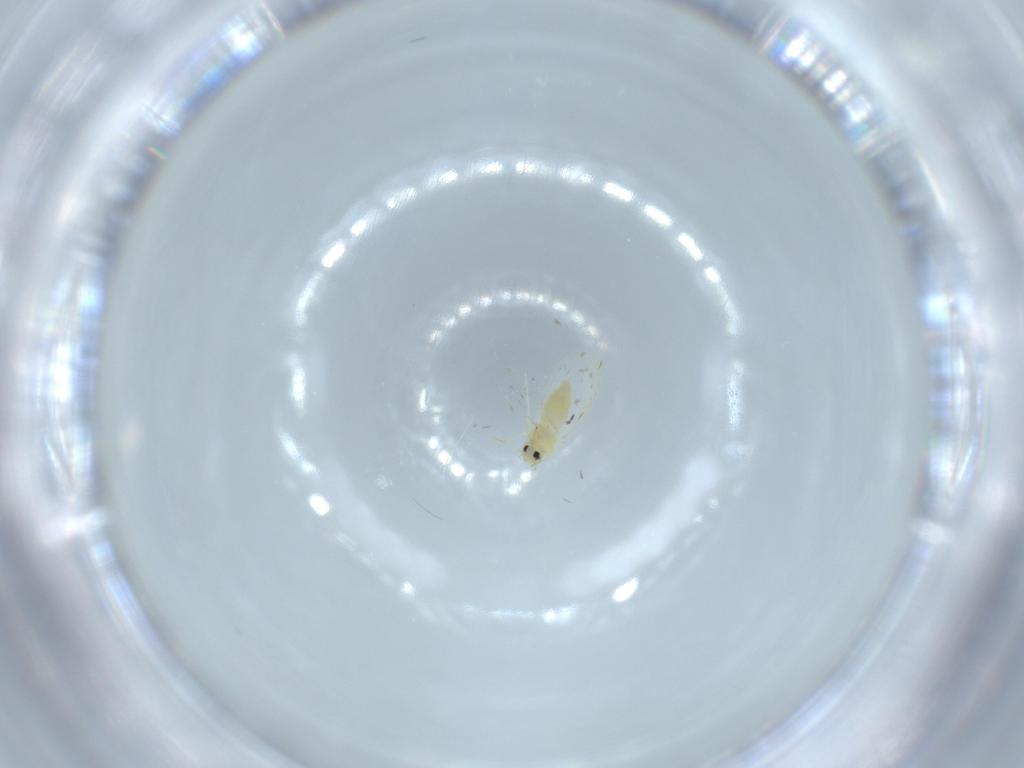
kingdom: Animalia
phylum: Arthropoda
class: Insecta
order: Hemiptera
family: Aleyrodidae
